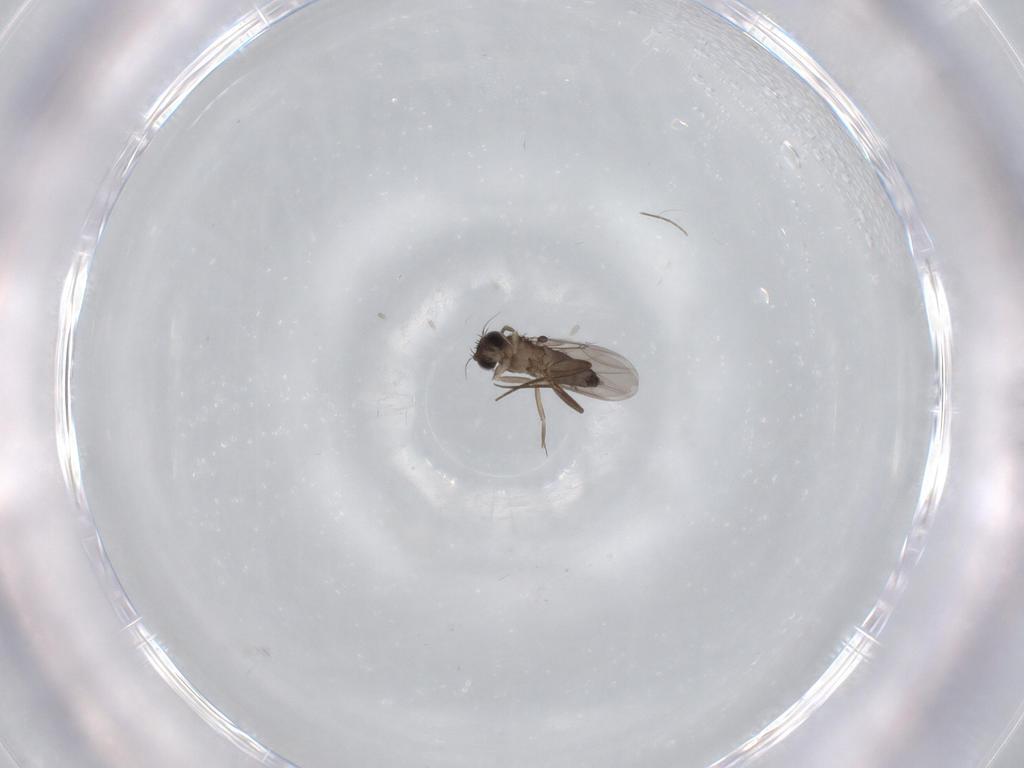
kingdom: Animalia
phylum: Arthropoda
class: Insecta
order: Diptera
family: Phoridae
